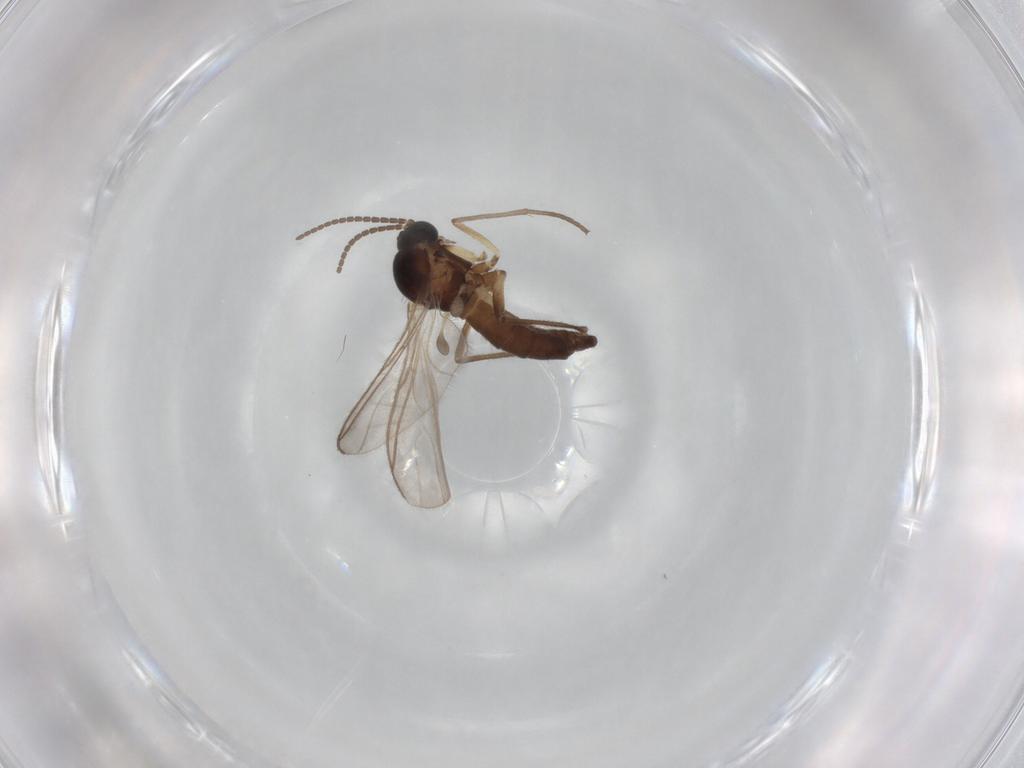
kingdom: Animalia
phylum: Arthropoda
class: Insecta
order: Diptera
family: Sciaridae
